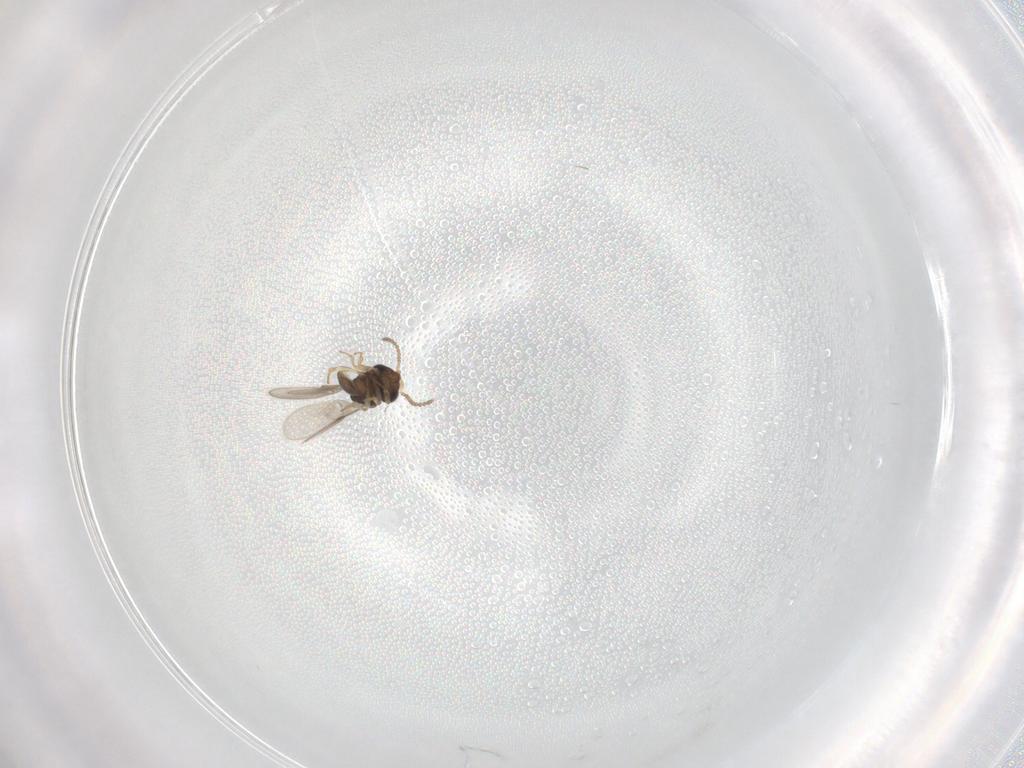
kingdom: Animalia
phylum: Arthropoda
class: Insecta
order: Hymenoptera
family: Scelionidae
